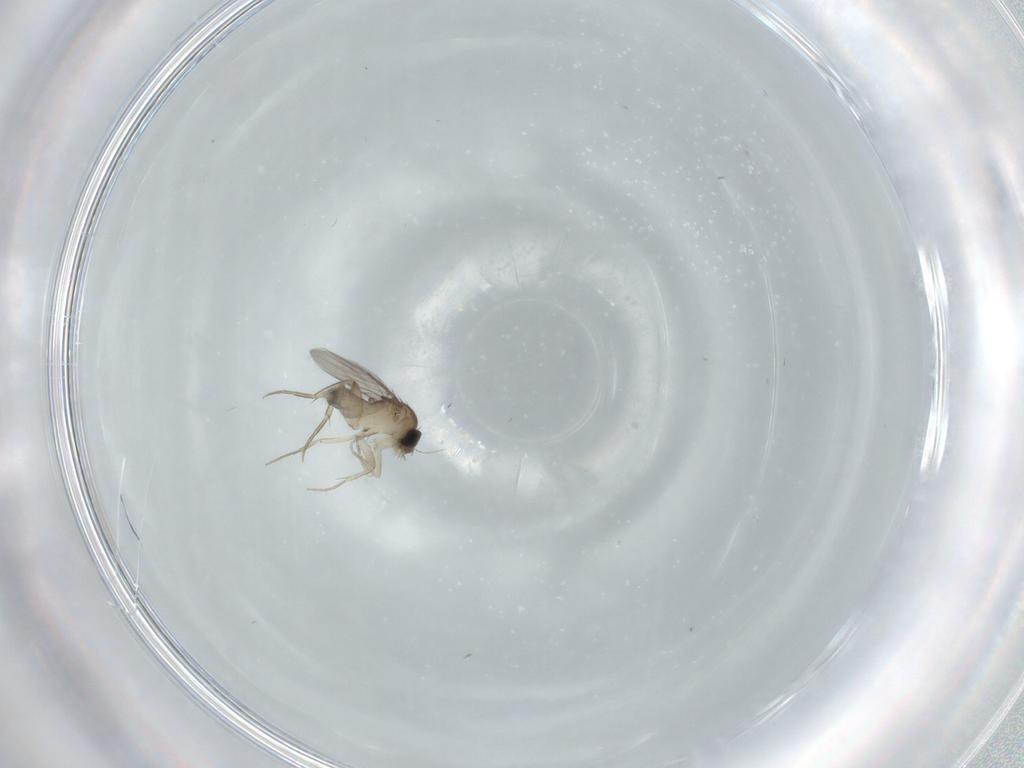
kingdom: Animalia
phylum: Arthropoda
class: Insecta
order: Diptera
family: Phoridae
